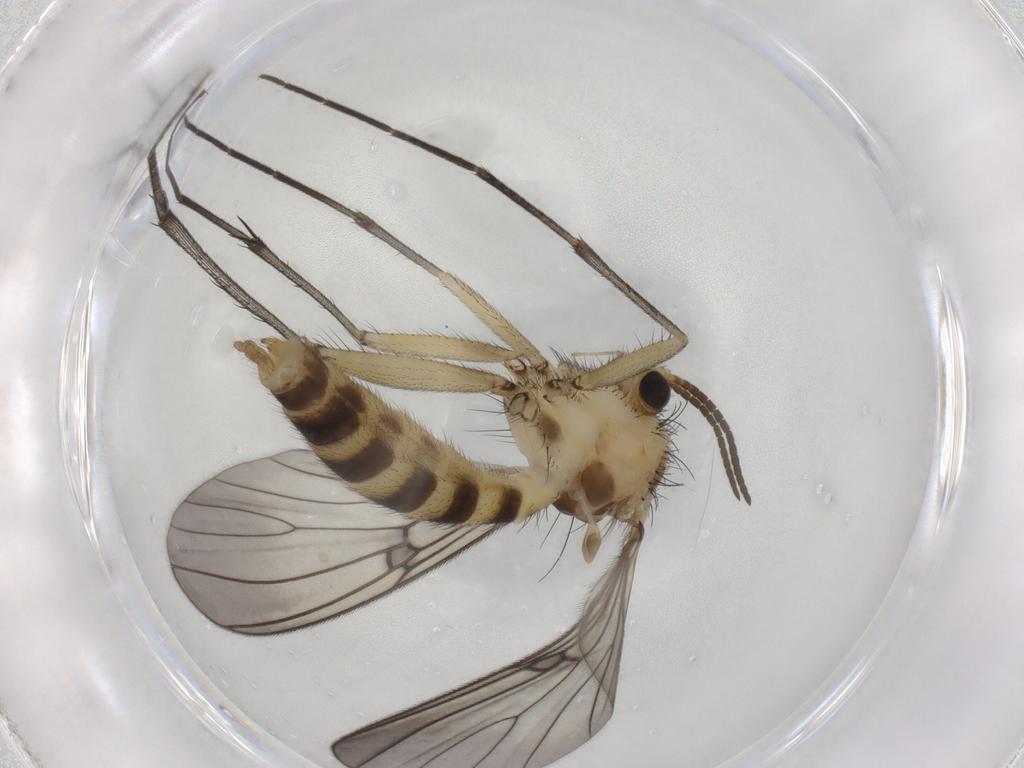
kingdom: Animalia
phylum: Arthropoda
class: Insecta
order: Diptera
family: Mycetophilidae
